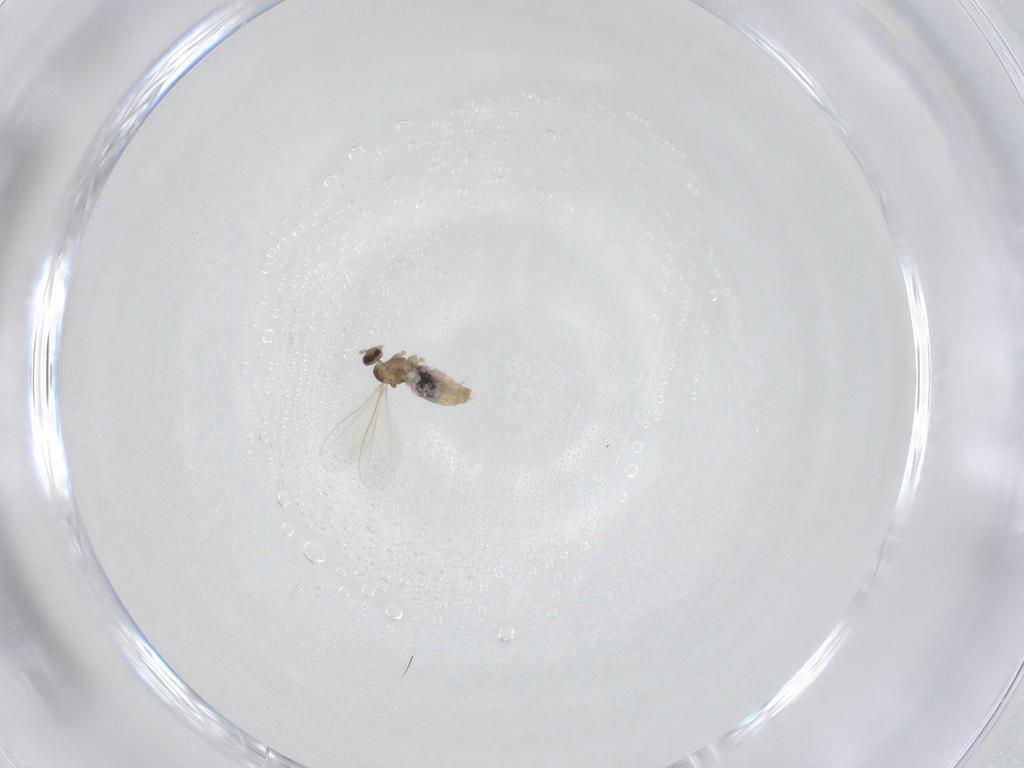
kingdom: Animalia
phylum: Arthropoda
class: Insecta
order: Diptera
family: Cecidomyiidae
